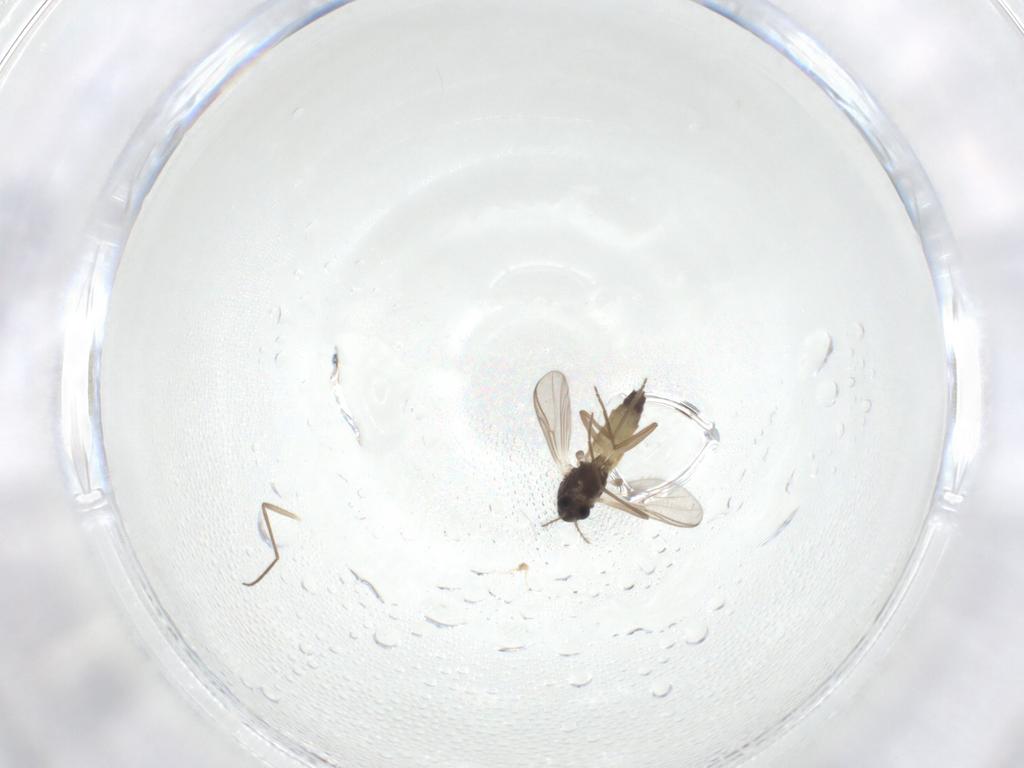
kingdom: Animalia
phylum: Arthropoda
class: Insecta
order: Diptera
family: Chironomidae
